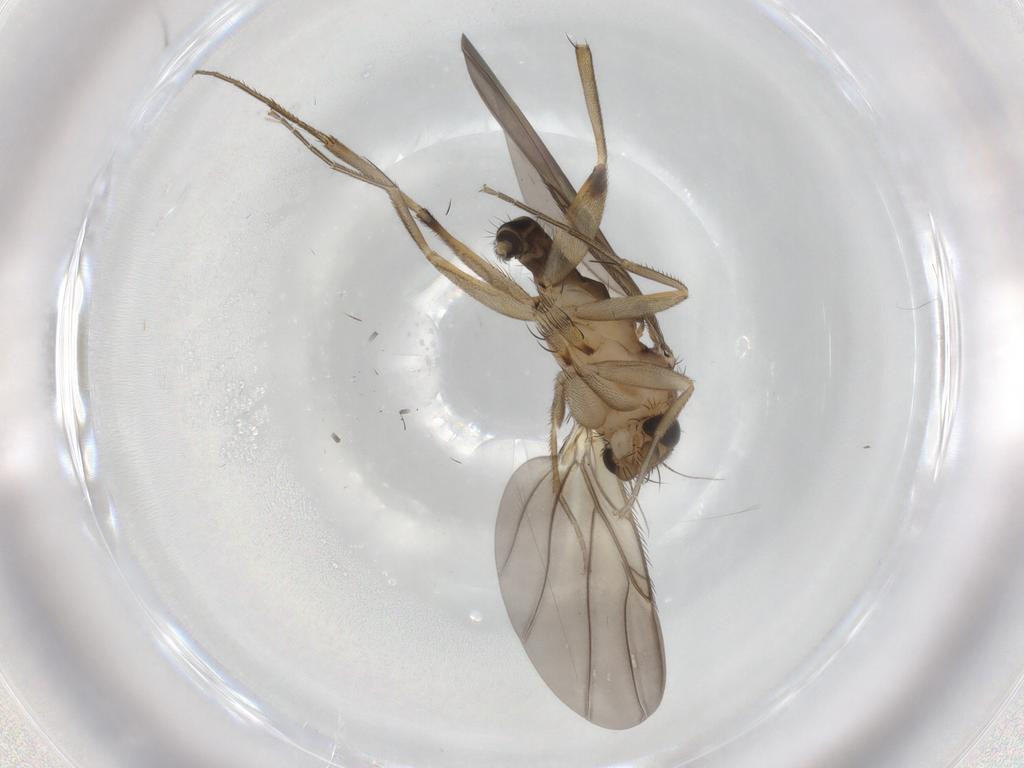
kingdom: Animalia
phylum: Arthropoda
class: Insecta
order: Diptera
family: Phoridae
